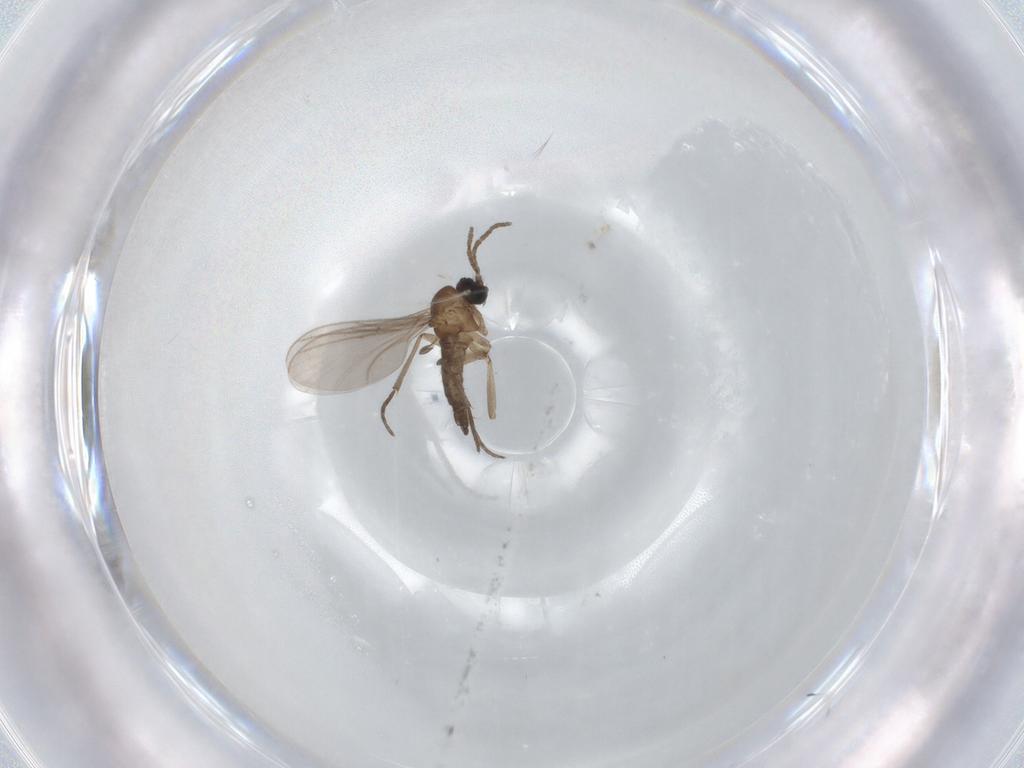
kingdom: Animalia
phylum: Arthropoda
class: Insecta
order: Diptera
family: Sciaridae
